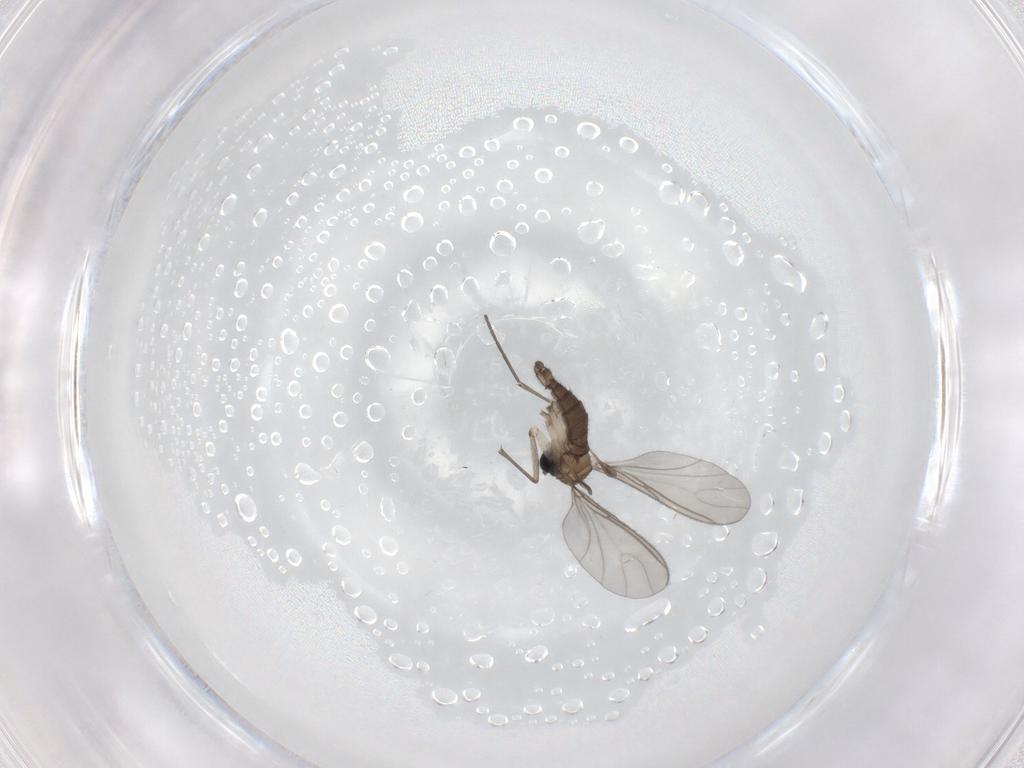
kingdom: Animalia
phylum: Arthropoda
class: Insecta
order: Diptera
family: Sciaridae
